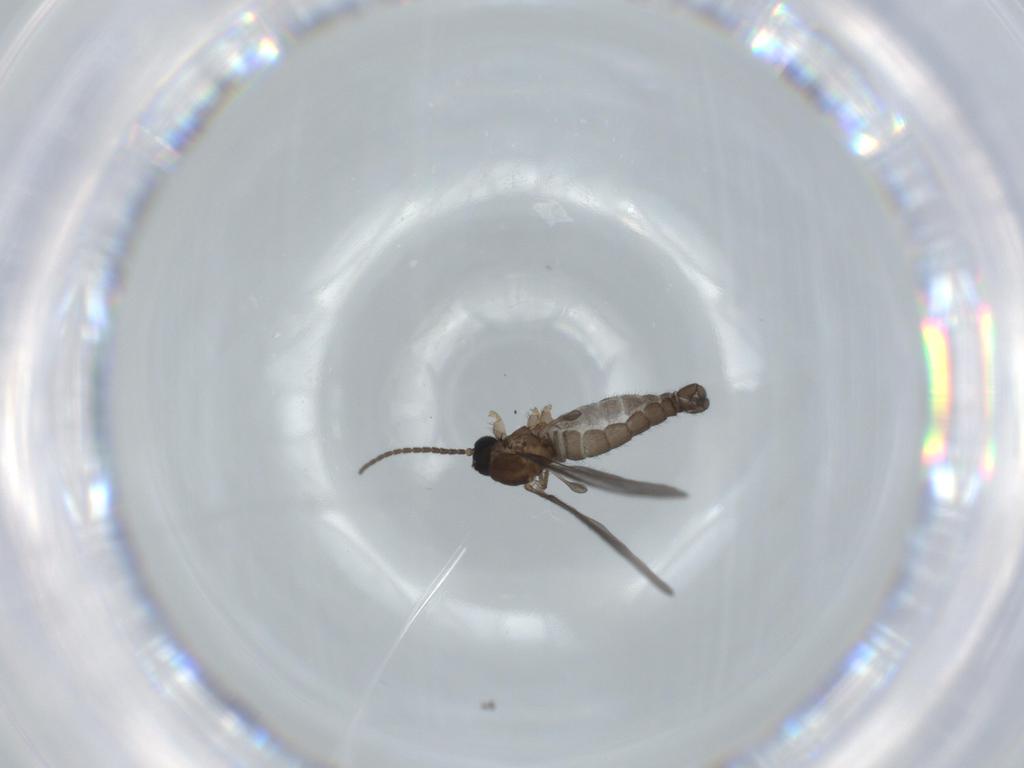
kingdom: Animalia
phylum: Arthropoda
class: Insecta
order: Diptera
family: Sciaridae
